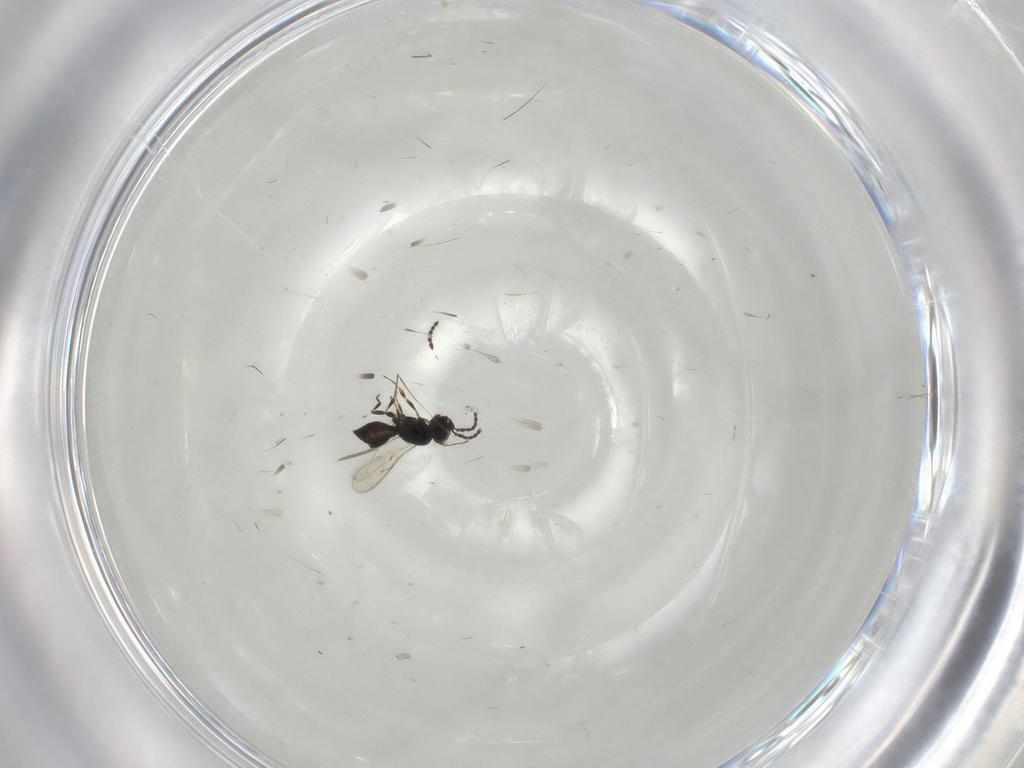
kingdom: Animalia
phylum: Arthropoda
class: Insecta
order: Hymenoptera
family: Scelionidae
